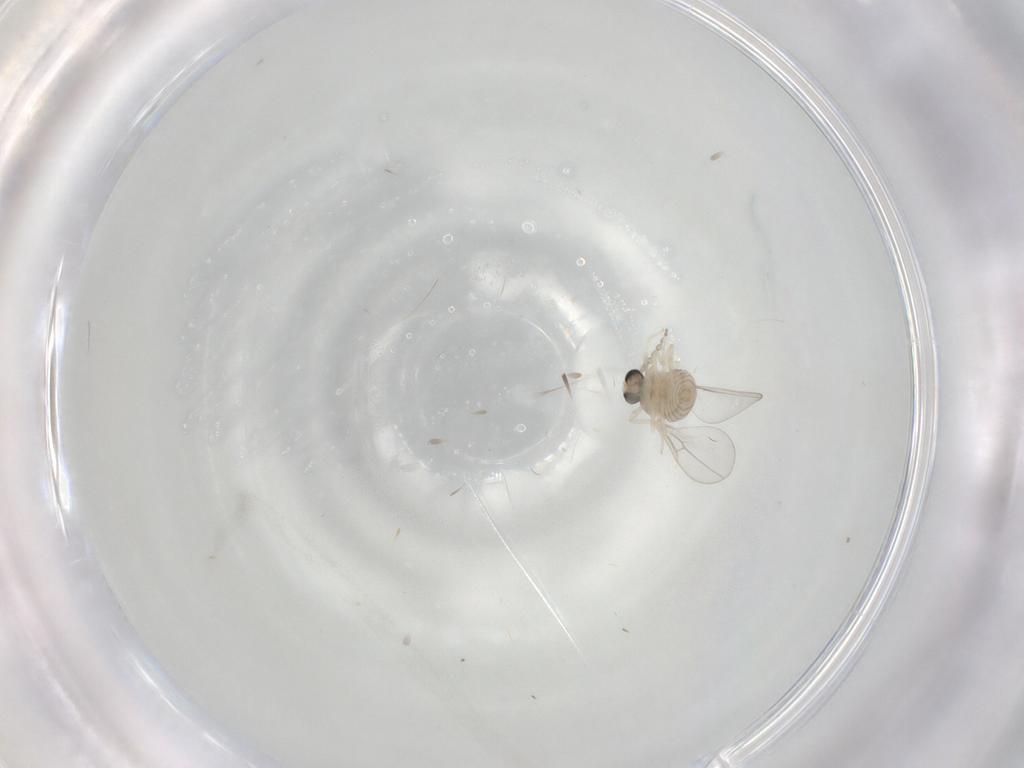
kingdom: Animalia
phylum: Arthropoda
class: Insecta
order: Diptera
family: Cecidomyiidae
